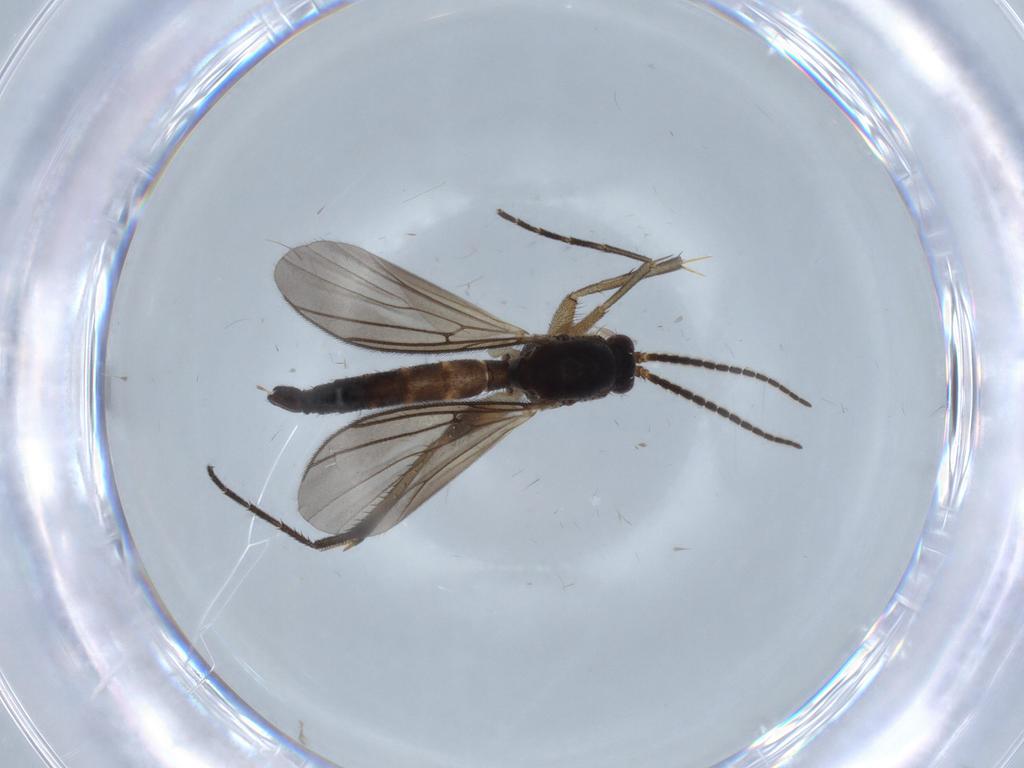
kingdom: Animalia
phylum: Arthropoda
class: Insecta
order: Diptera
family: Mycetophilidae
